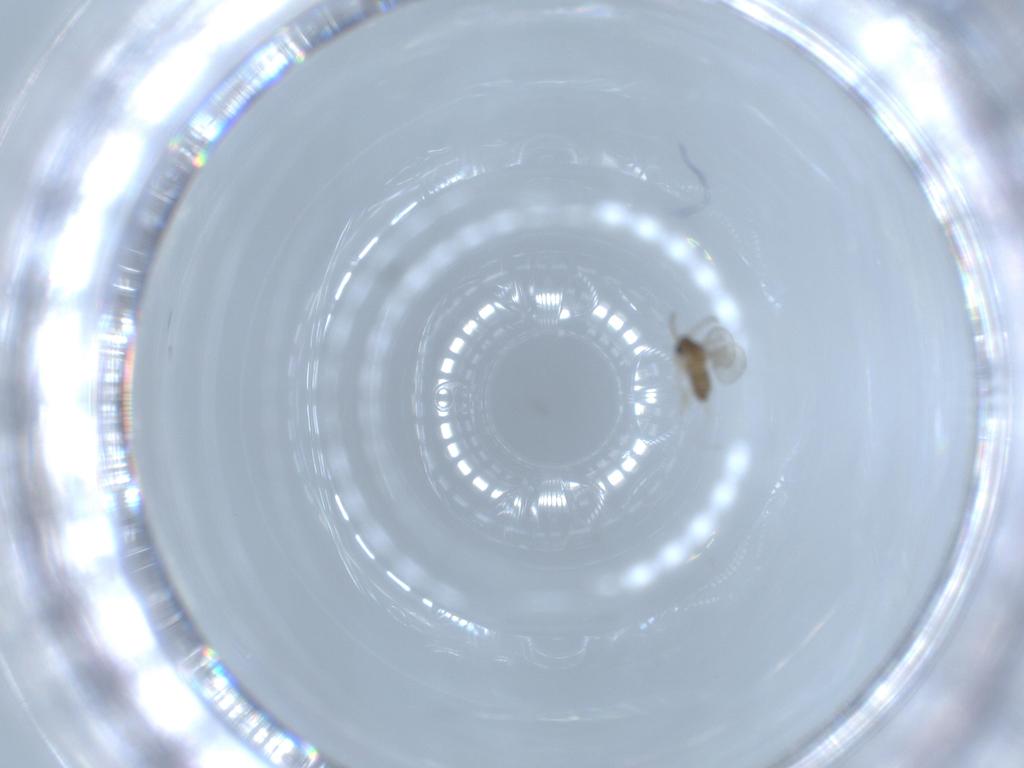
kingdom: Animalia
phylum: Arthropoda
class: Insecta
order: Diptera
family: Cecidomyiidae
